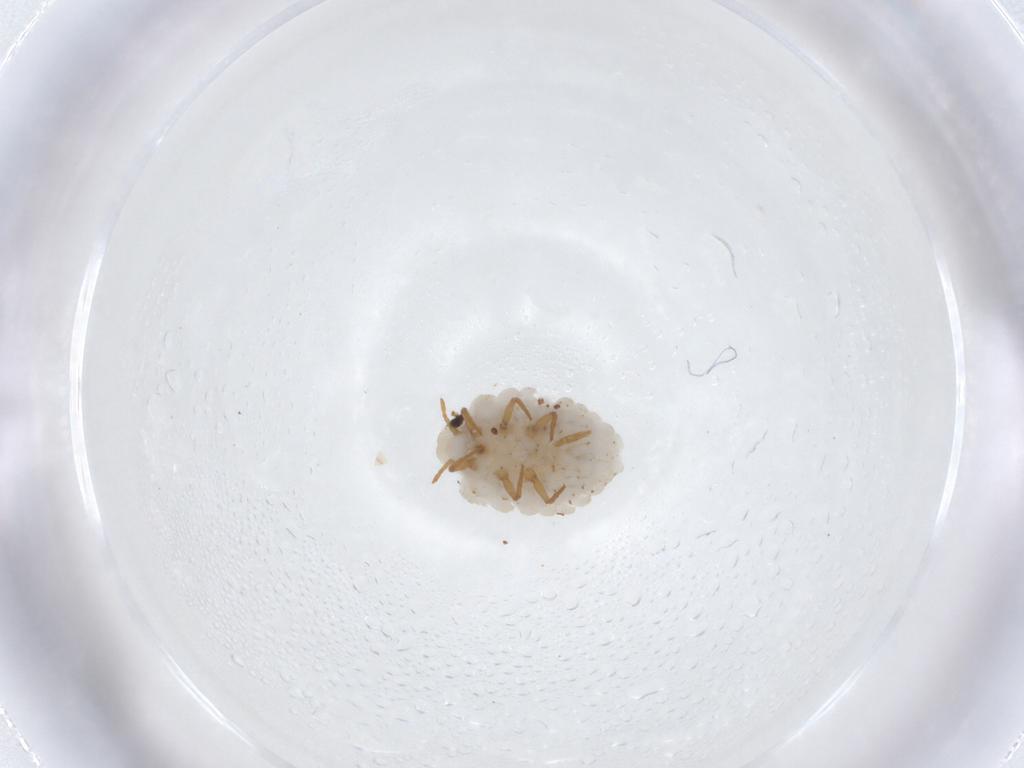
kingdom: Animalia
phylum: Arthropoda
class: Insecta
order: Hemiptera
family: Ortheziidae
